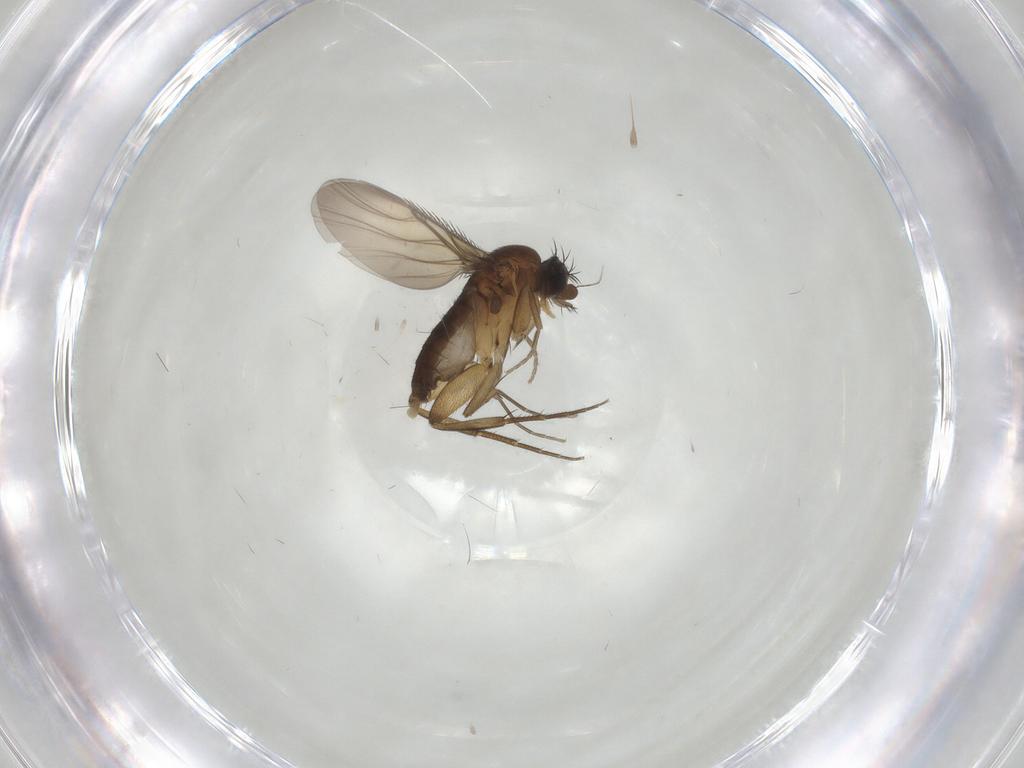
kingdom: Animalia
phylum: Arthropoda
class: Insecta
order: Diptera
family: Phoridae
